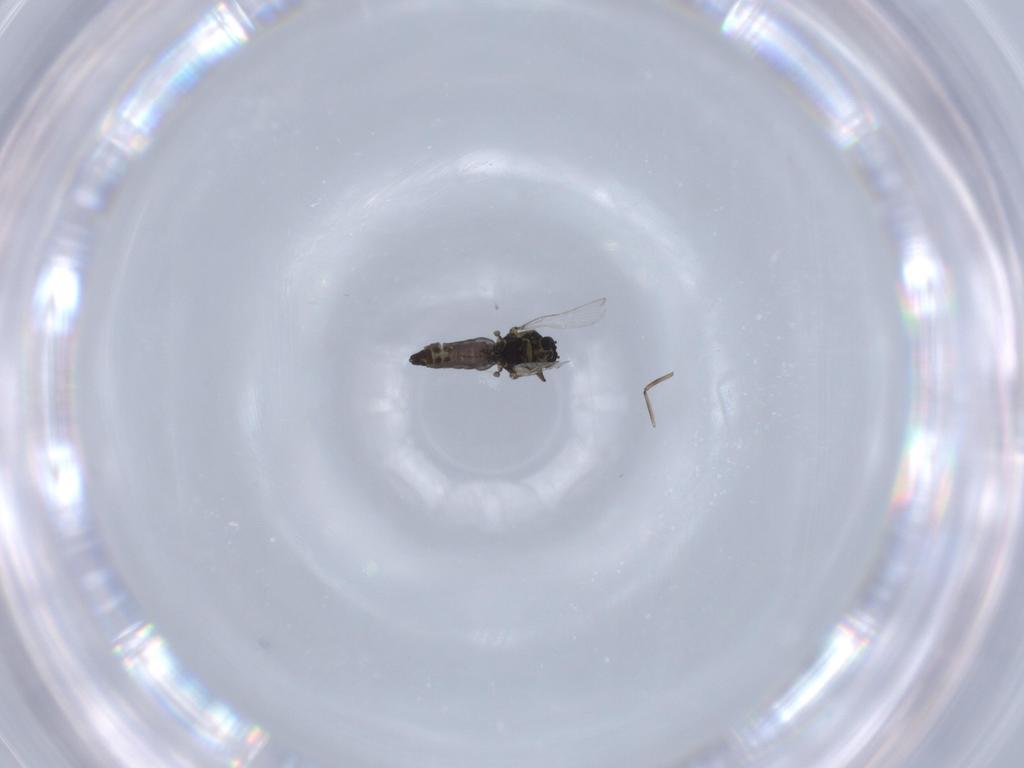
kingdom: Animalia
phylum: Arthropoda
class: Insecta
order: Diptera
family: Ceratopogonidae
